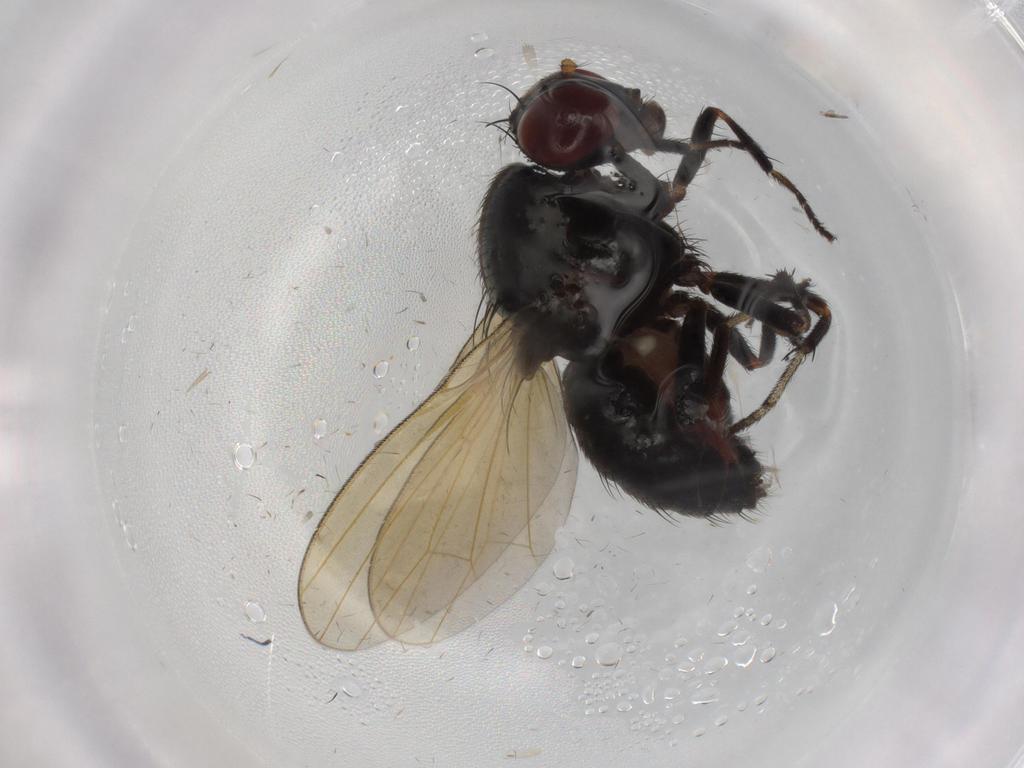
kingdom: Animalia
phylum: Arthropoda
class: Insecta
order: Diptera
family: Lauxaniidae
